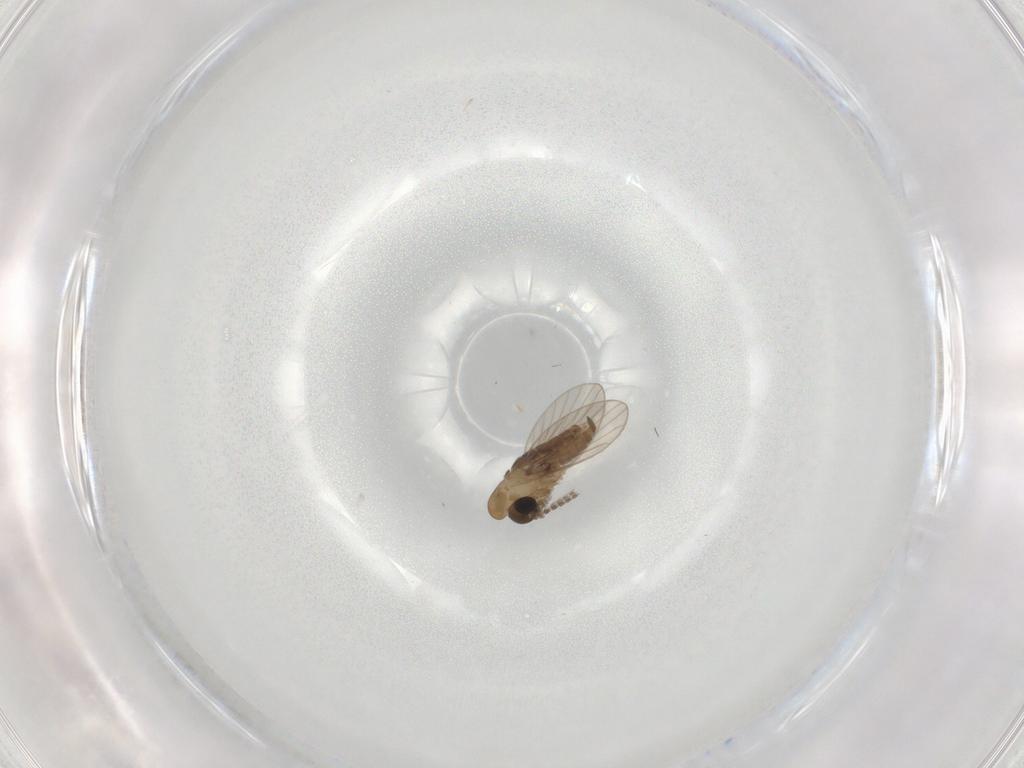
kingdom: Animalia
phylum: Arthropoda
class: Insecta
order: Diptera
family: Psychodidae
